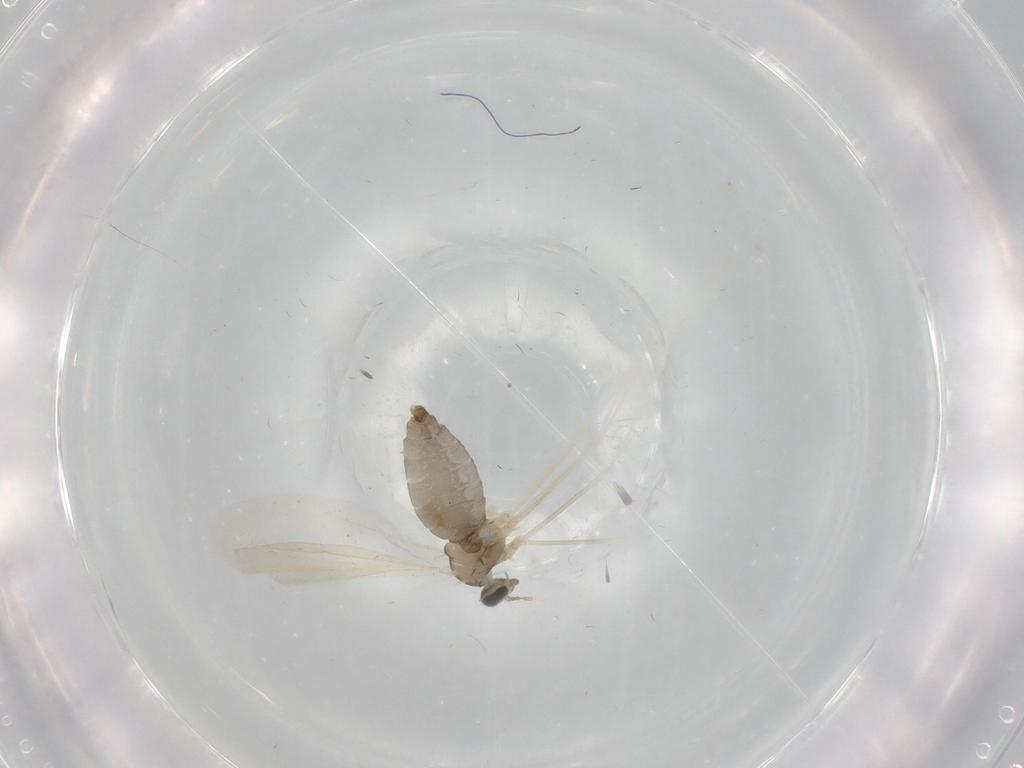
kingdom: Animalia
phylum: Arthropoda
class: Insecta
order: Diptera
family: Cecidomyiidae
